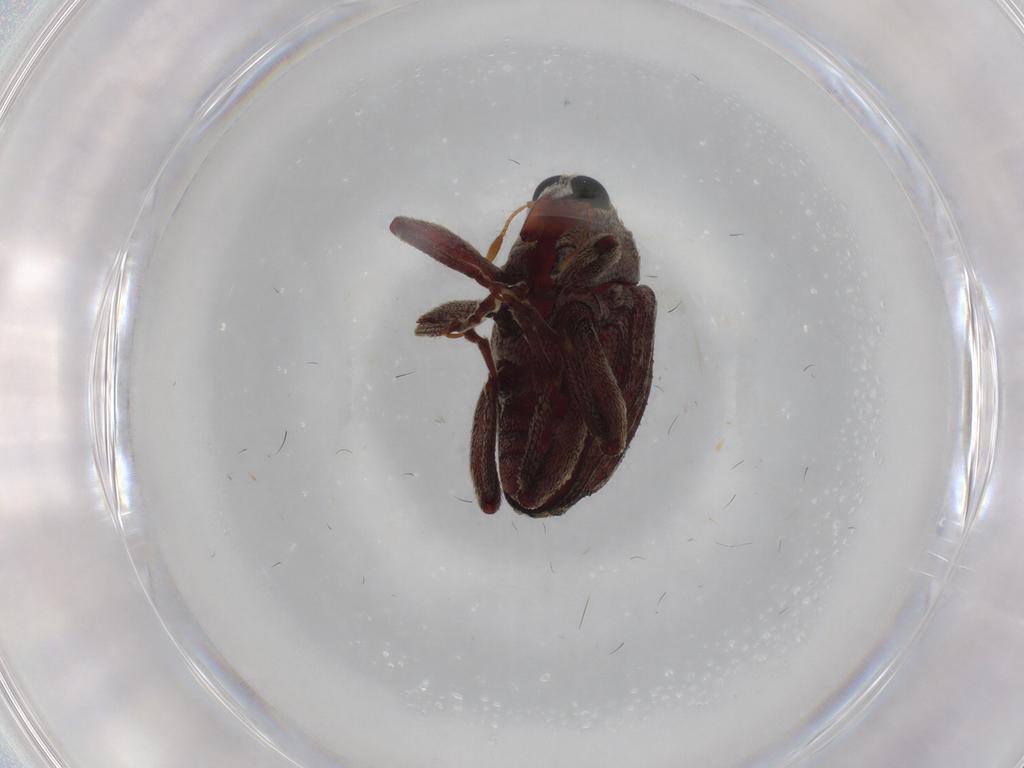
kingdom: Animalia
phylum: Arthropoda
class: Insecta
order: Coleoptera
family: Curculionidae
